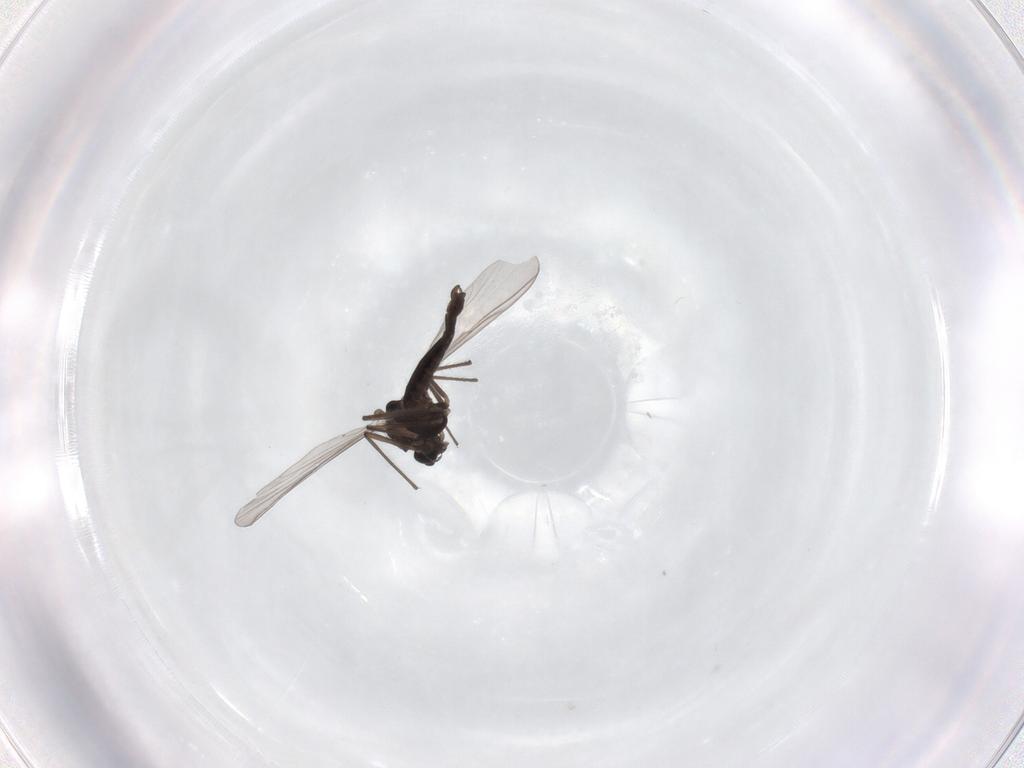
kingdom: Animalia
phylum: Arthropoda
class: Insecta
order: Diptera
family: Chironomidae
